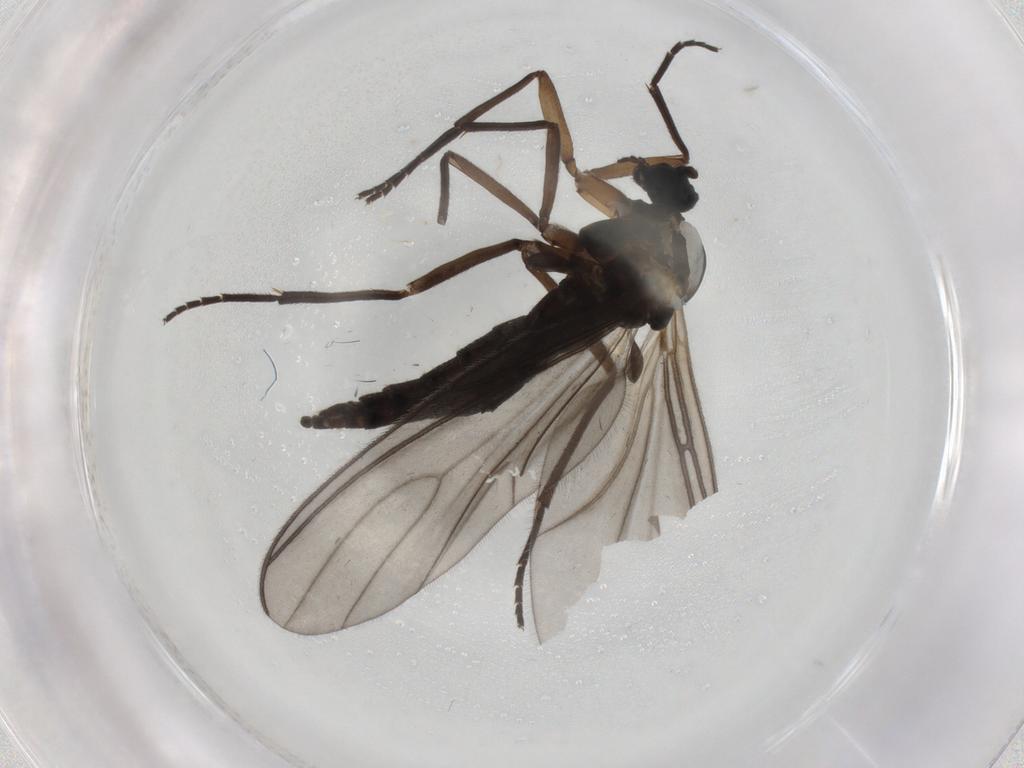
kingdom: Animalia
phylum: Arthropoda
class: Insecta
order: Diptera
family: Sciaridae
